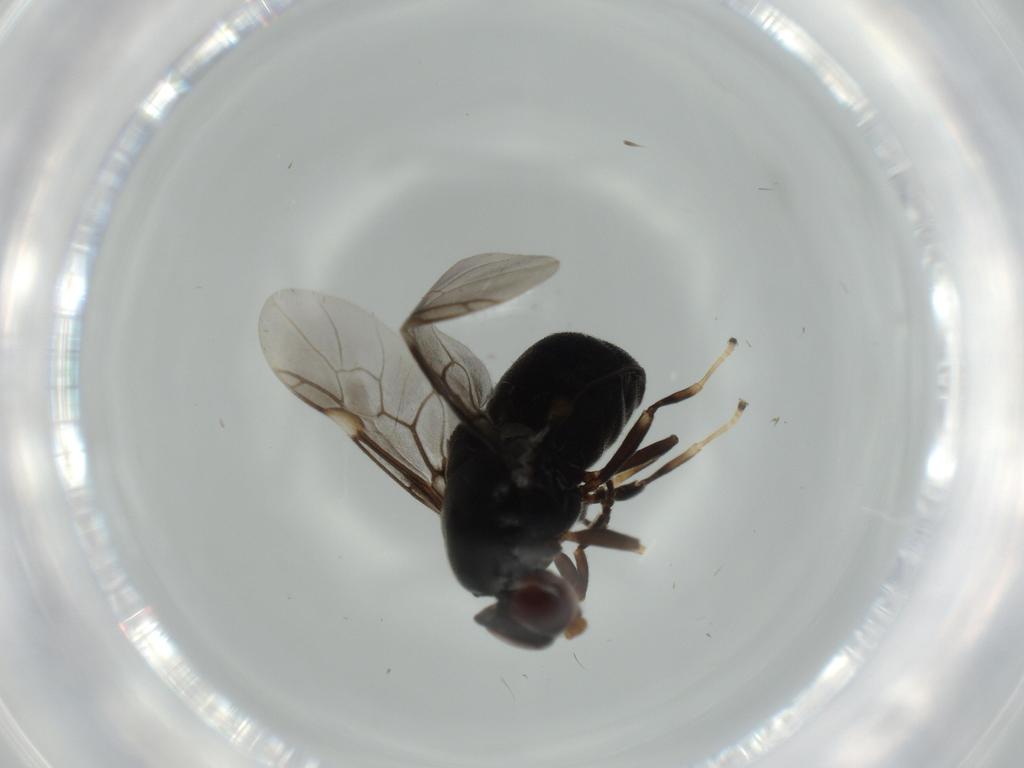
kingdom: Animalia
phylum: Arthropoda
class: Insecta
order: Diptera
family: Stratiomyidae
